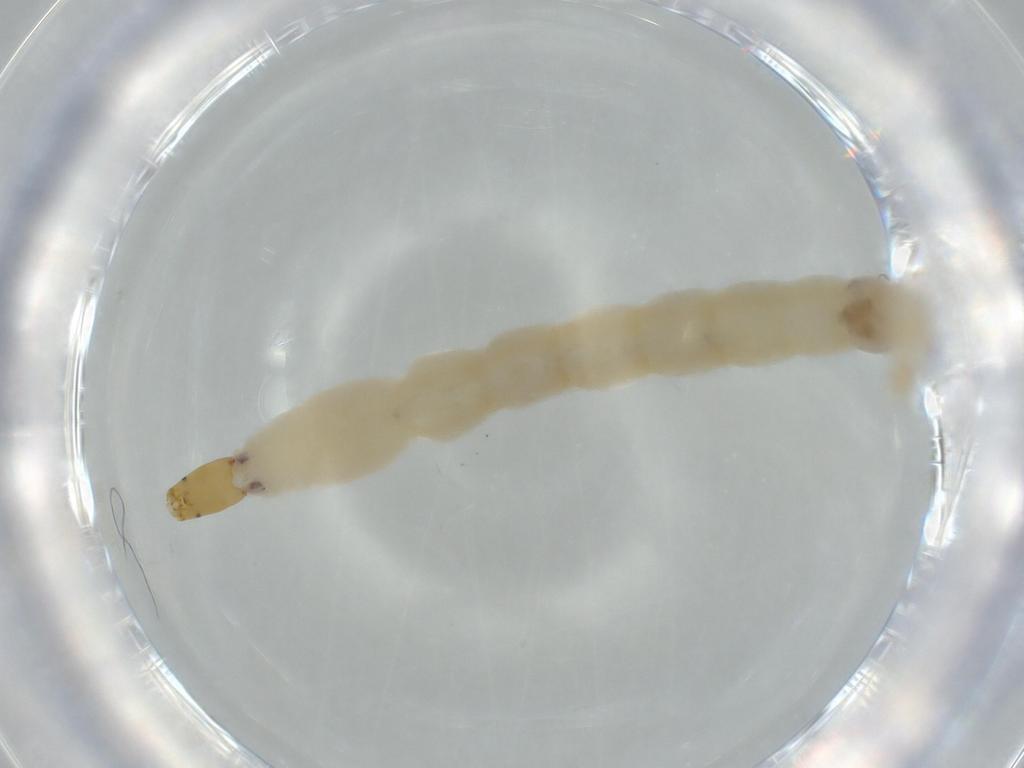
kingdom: Animalia
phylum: Arthropoda
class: Insecta
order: Diptera
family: Chironomidae
